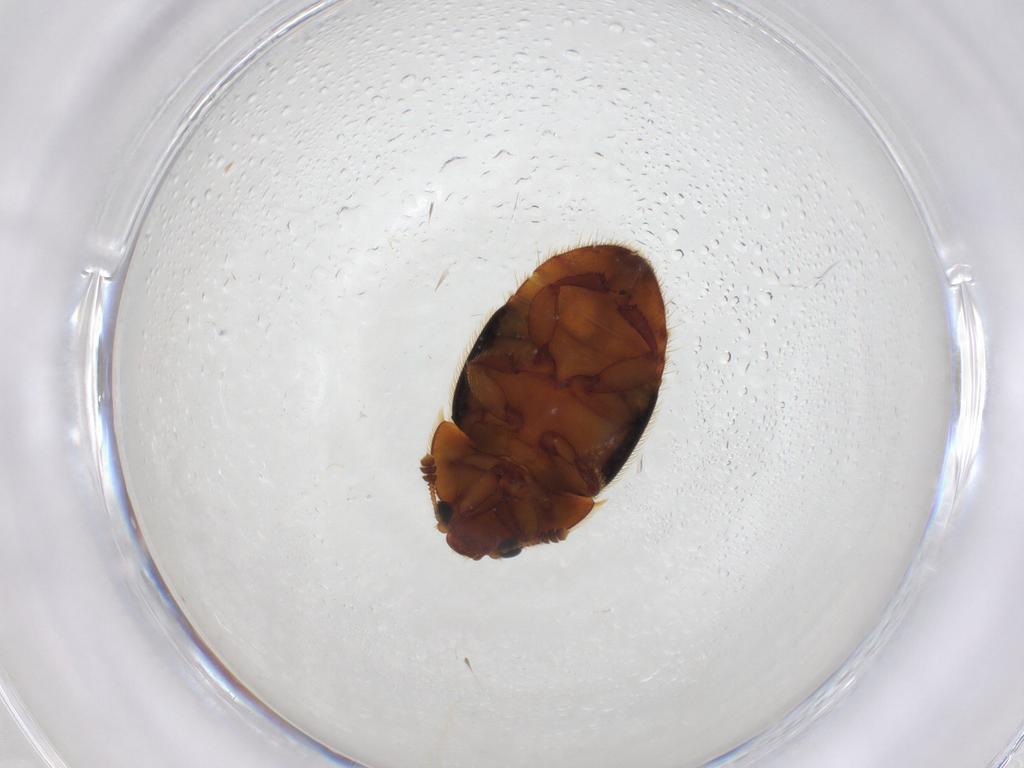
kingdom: Animalia
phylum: Arthropoda
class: Insecta
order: Coleoptera
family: Nitidulidae
